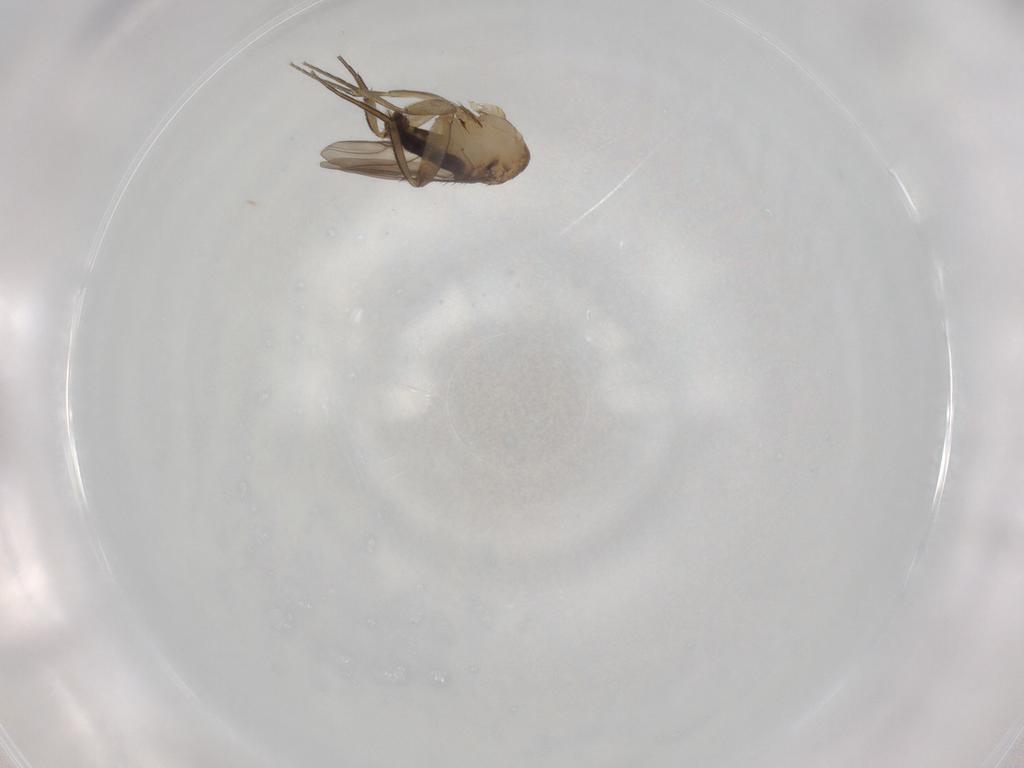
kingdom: Animalia
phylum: Arthropoda
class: Insecta
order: Diptera
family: Phoridae
